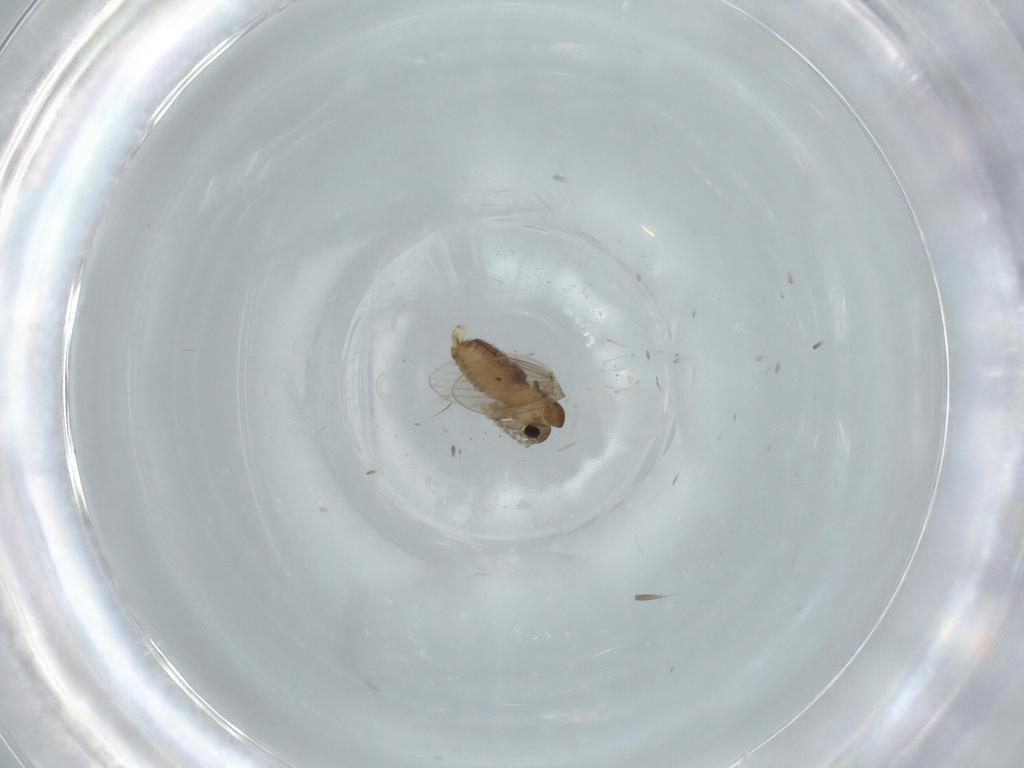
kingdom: Animalia
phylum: Arthropoda
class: Insecta
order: Diptera
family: Psychodidae
